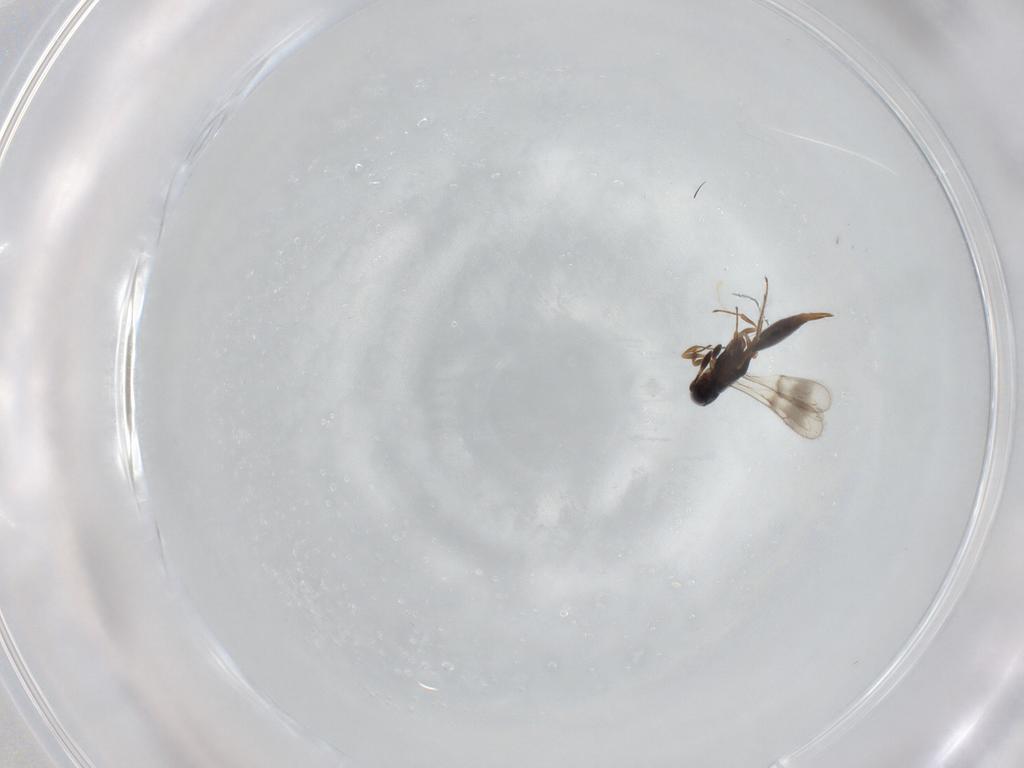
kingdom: Animalia
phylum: Arthropoda
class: Insecta
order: Hymenoptera
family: Scelionidae
